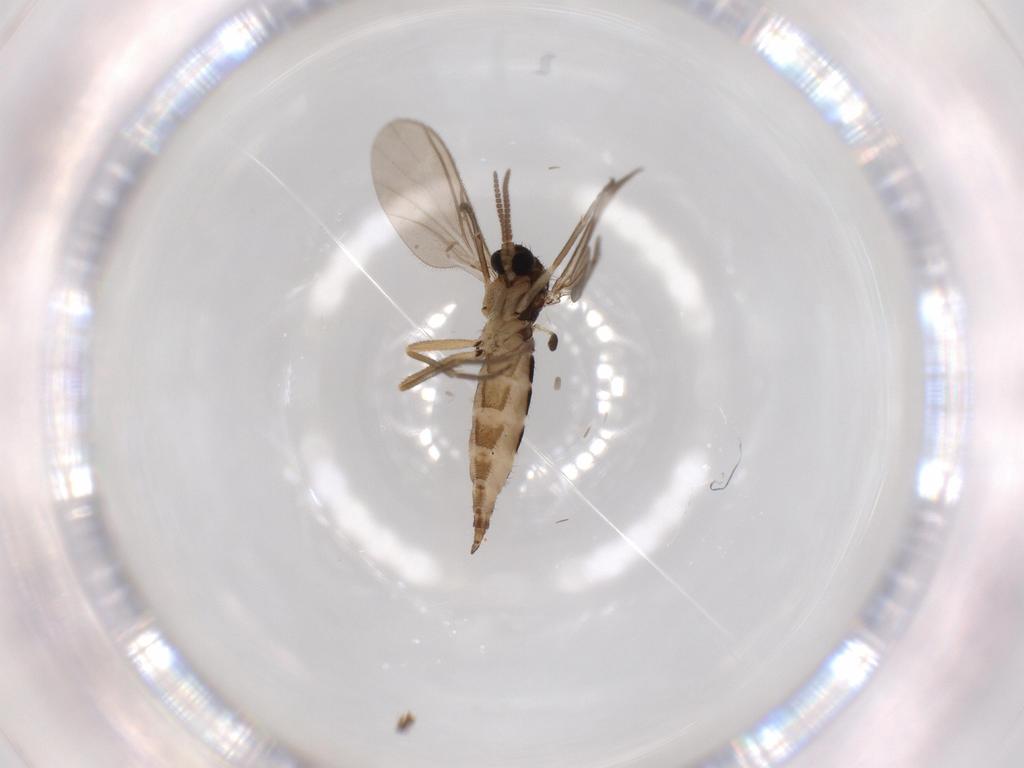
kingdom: Animalia
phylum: Arthropoda
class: Insecta
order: Diptera
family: Sciaridae
